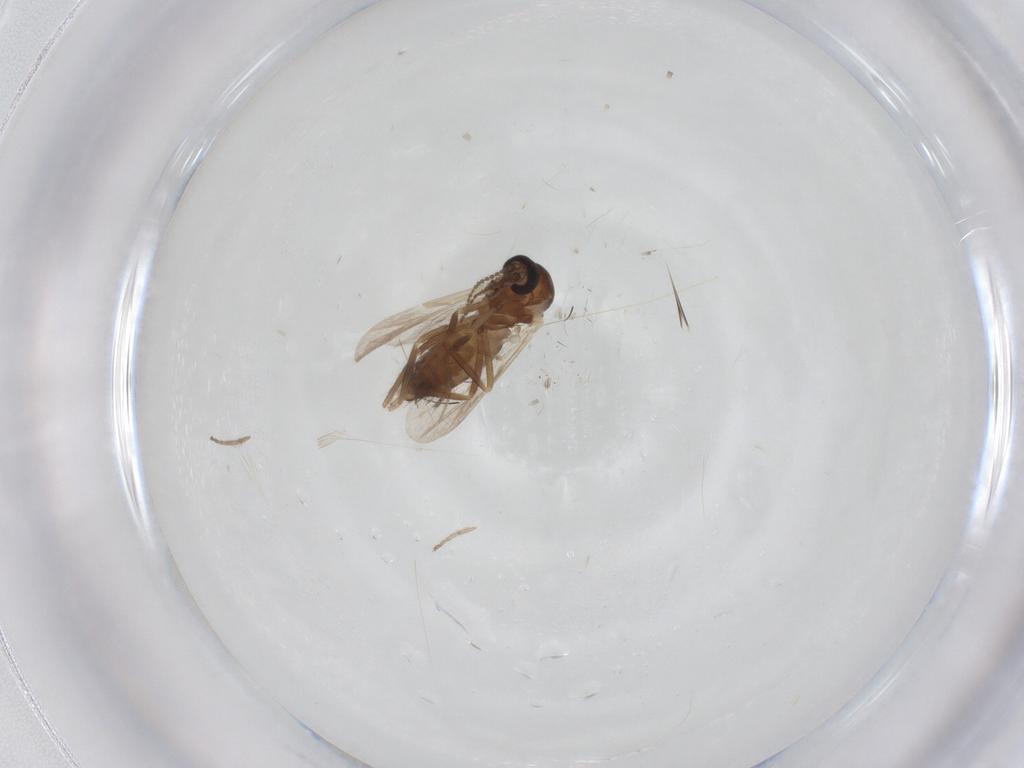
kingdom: Animalia
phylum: Arthropoda
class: Insecta
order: Diptera
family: Ceratopogonidae
